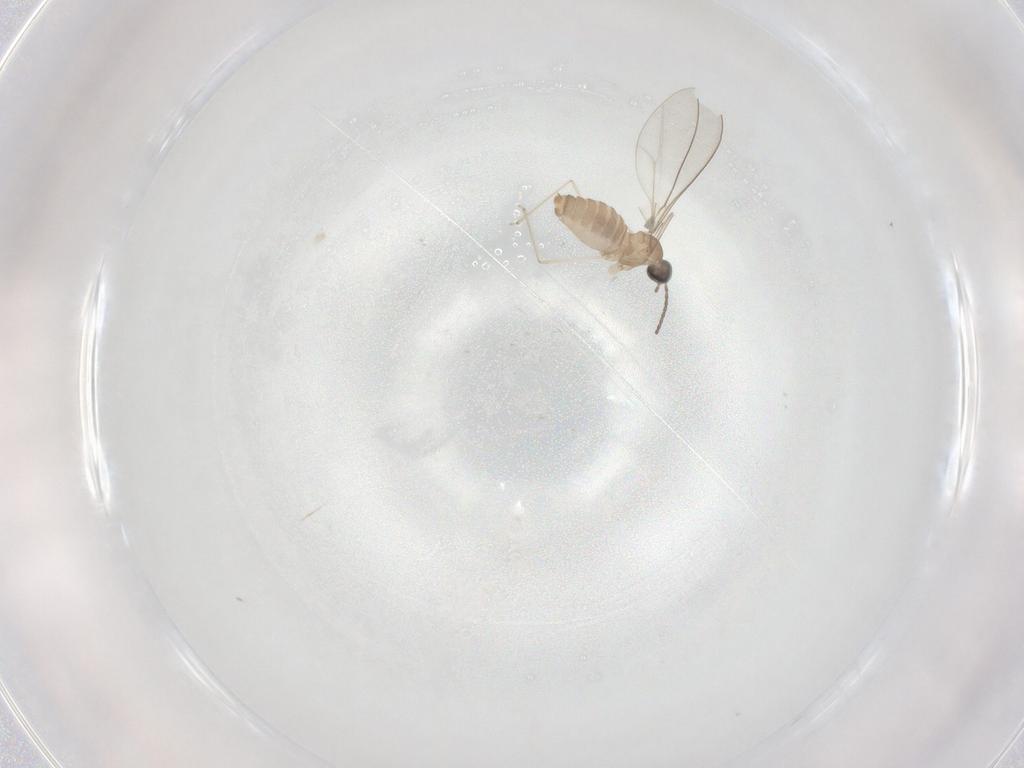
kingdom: Animalia
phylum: Arthropoda
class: Insecta
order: Diptera
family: Cecidomyiidae
